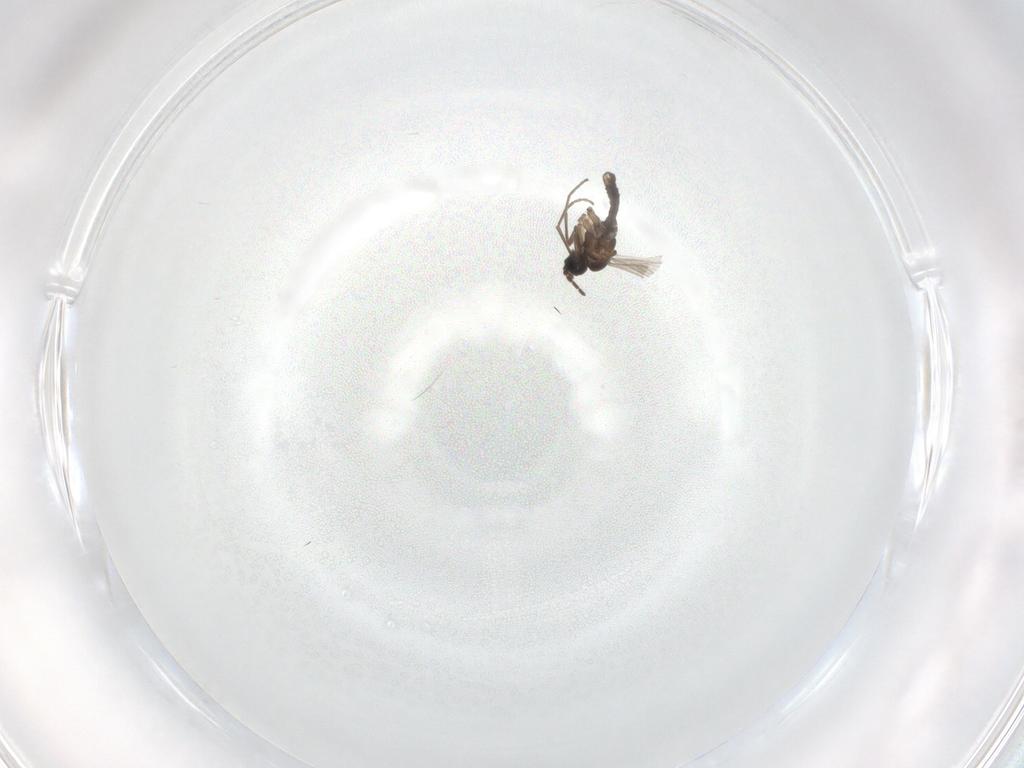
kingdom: Animalia
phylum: Arthropoda
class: Insecta
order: Diptera
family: Sciaridae
